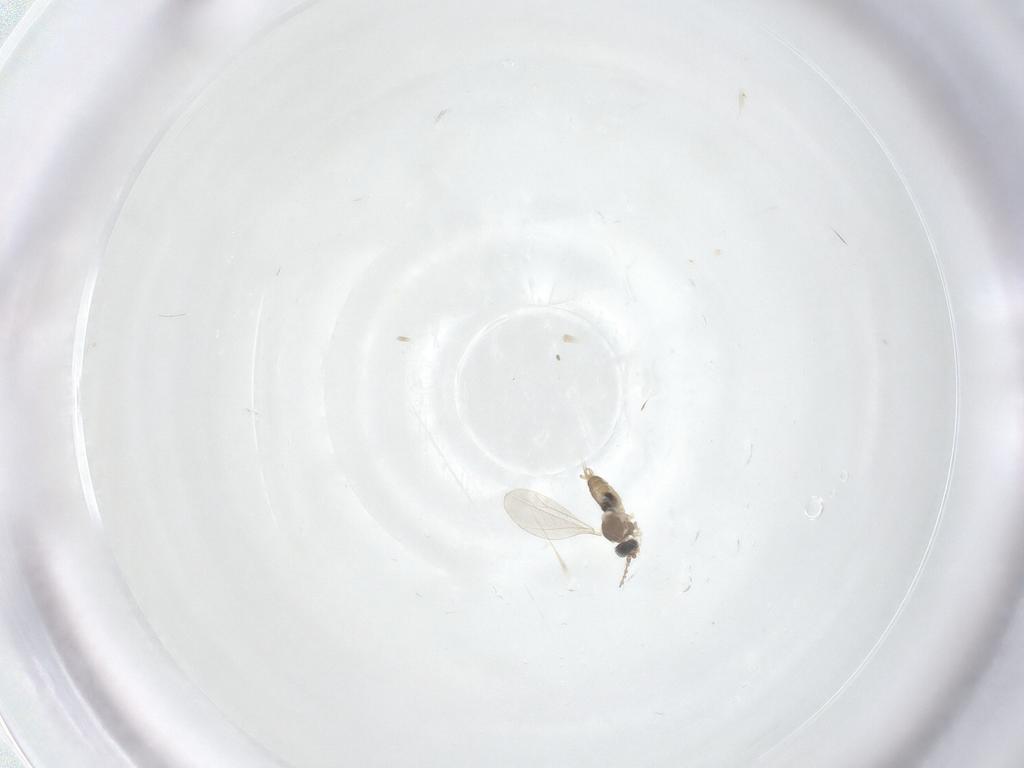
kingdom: Animalia
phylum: Arthropoda
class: Insecta
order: Diptera
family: Cecidomyiidae
